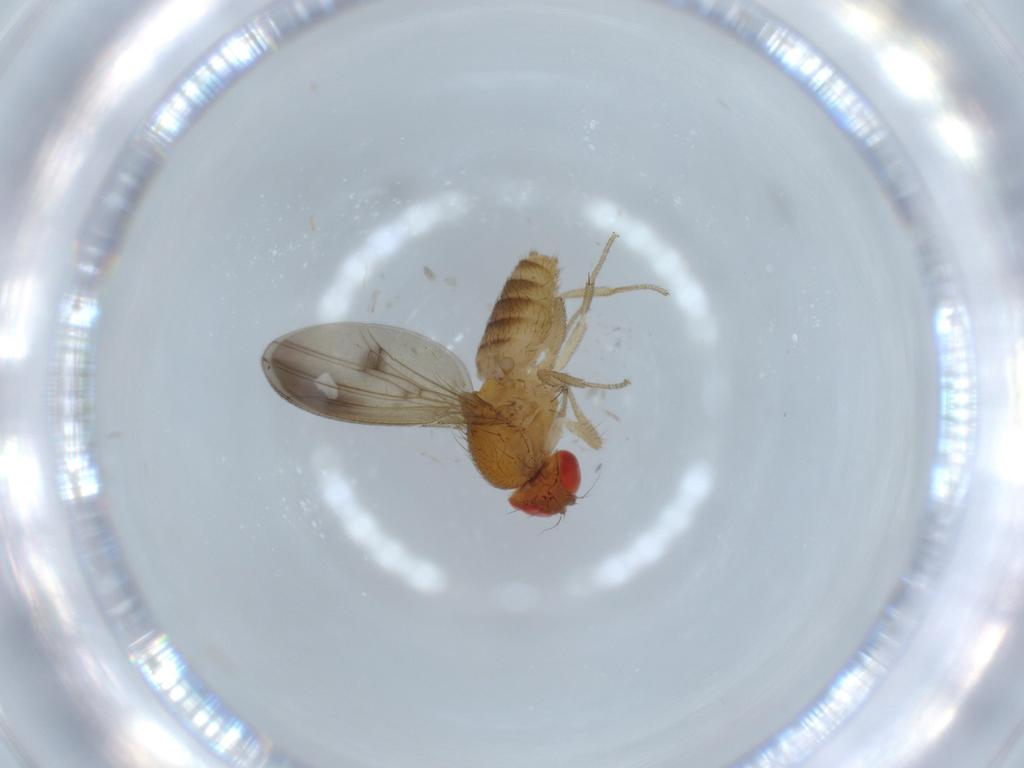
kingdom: Animalia
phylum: Arthropoda
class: Insecta
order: Diptera
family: Drosophilidae
